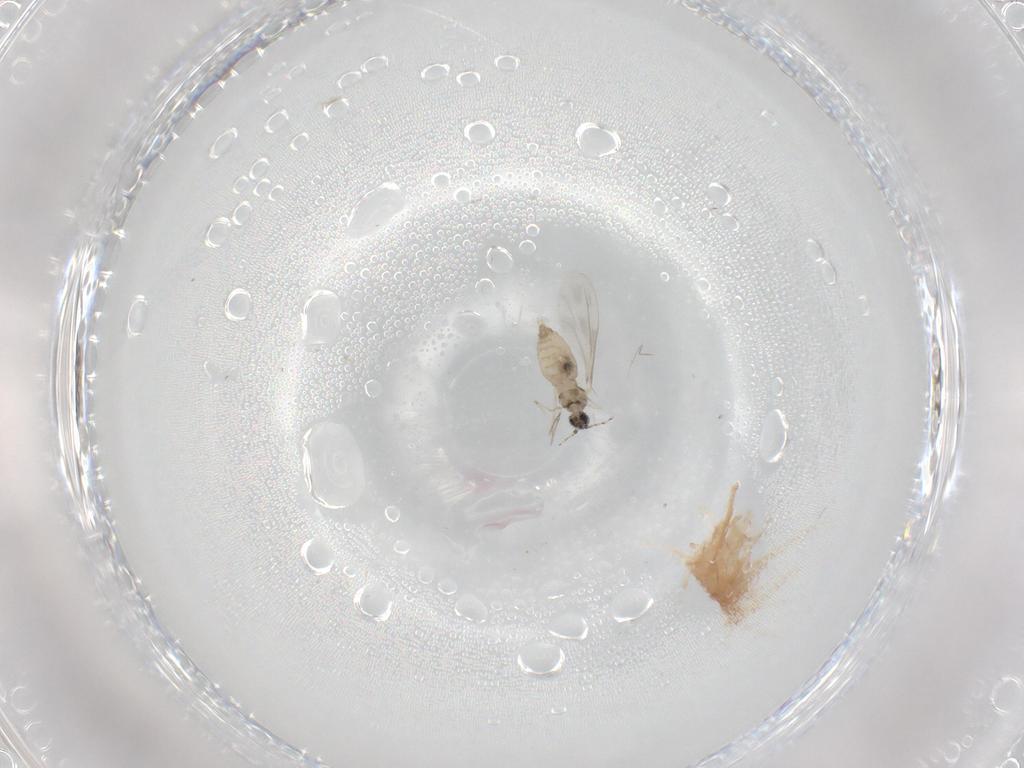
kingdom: Animalia
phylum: Arthropoda
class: Insecta
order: Diptera
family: Cecidomyiidae
